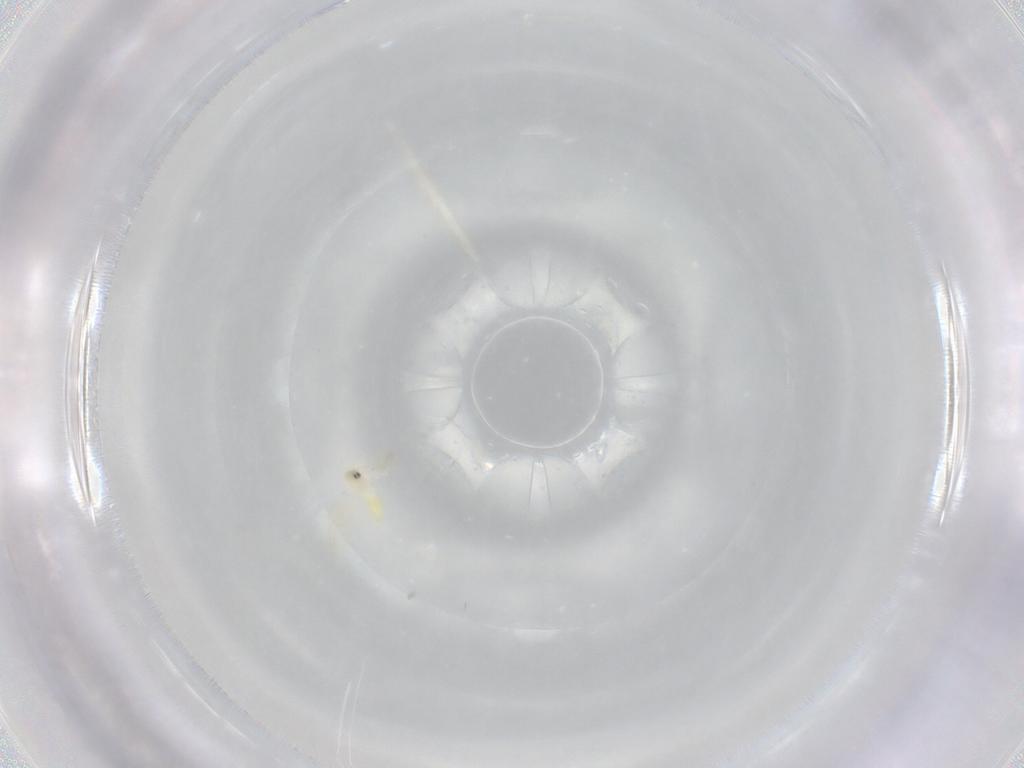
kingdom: Animalia
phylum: Arthropoda
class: Insecta
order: Hemiptera
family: Aleyrodidae
